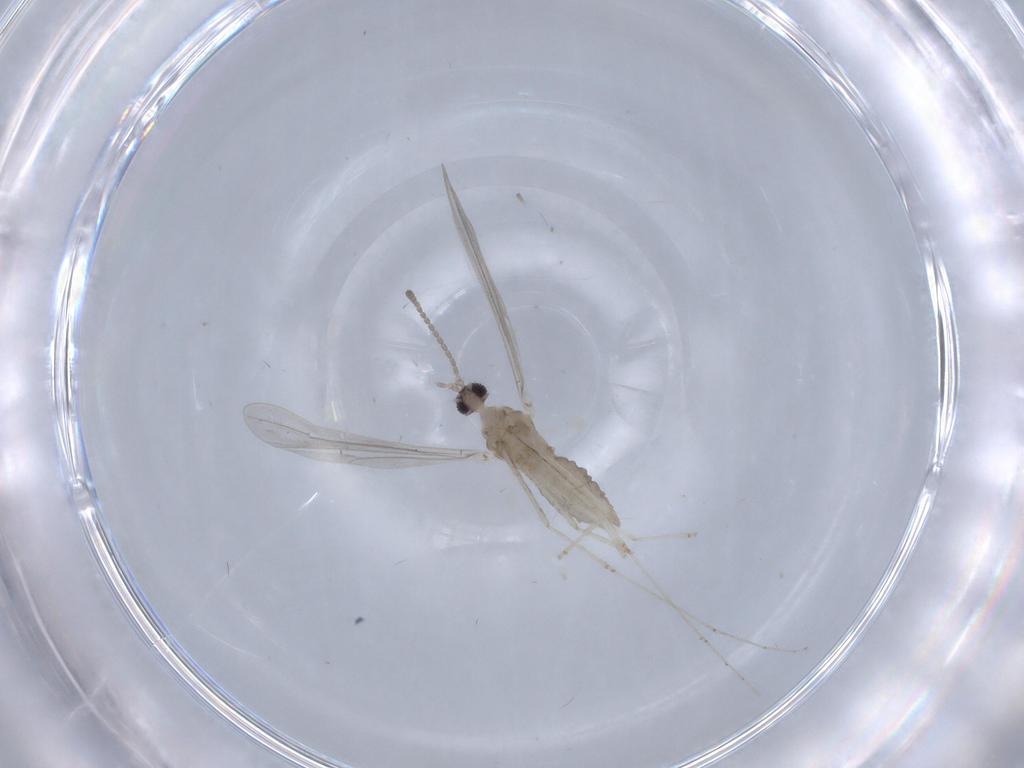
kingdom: Animalia
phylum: Arthropoda
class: Insecta
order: Diptera
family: Cecidomyiidae
